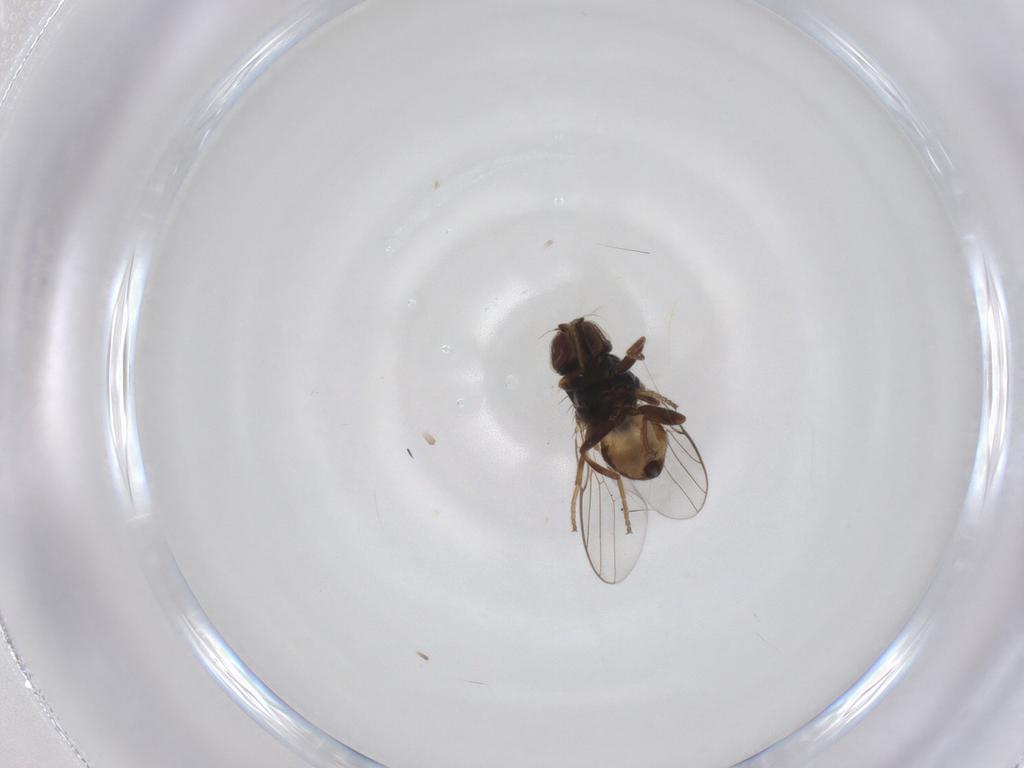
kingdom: Animalia
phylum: Arthropoda
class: Insecta
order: Diptera
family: Chloropidae
